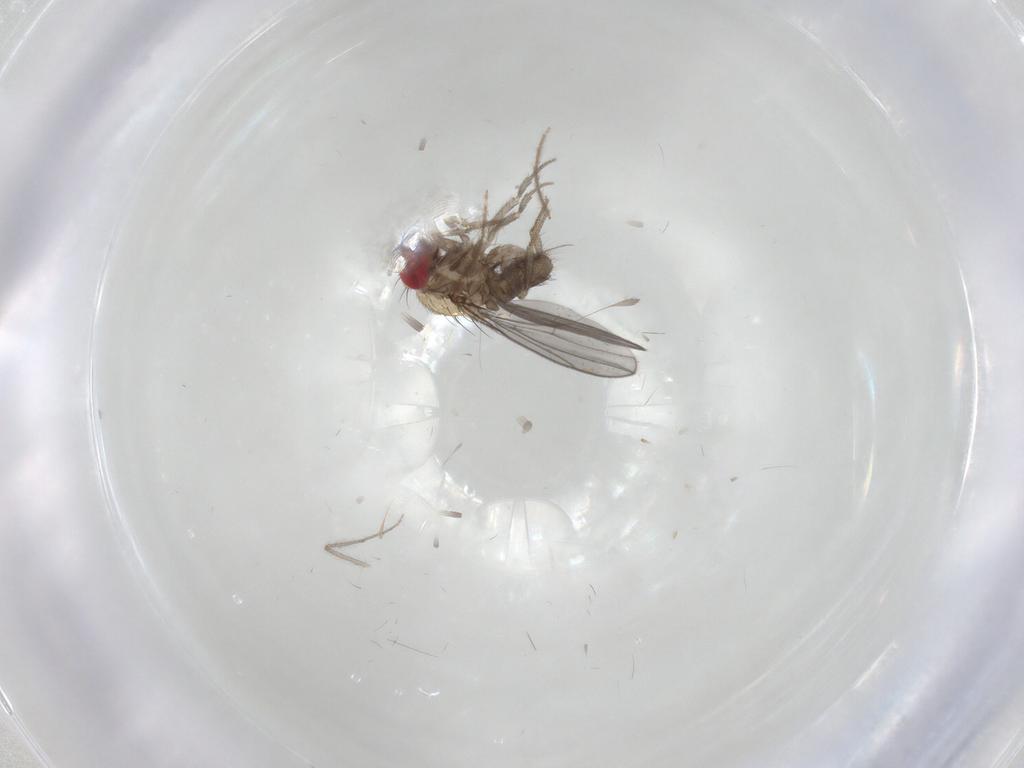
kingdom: Animalia
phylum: Arthropoda
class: Insecta
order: Diptera
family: Drosophilidae
